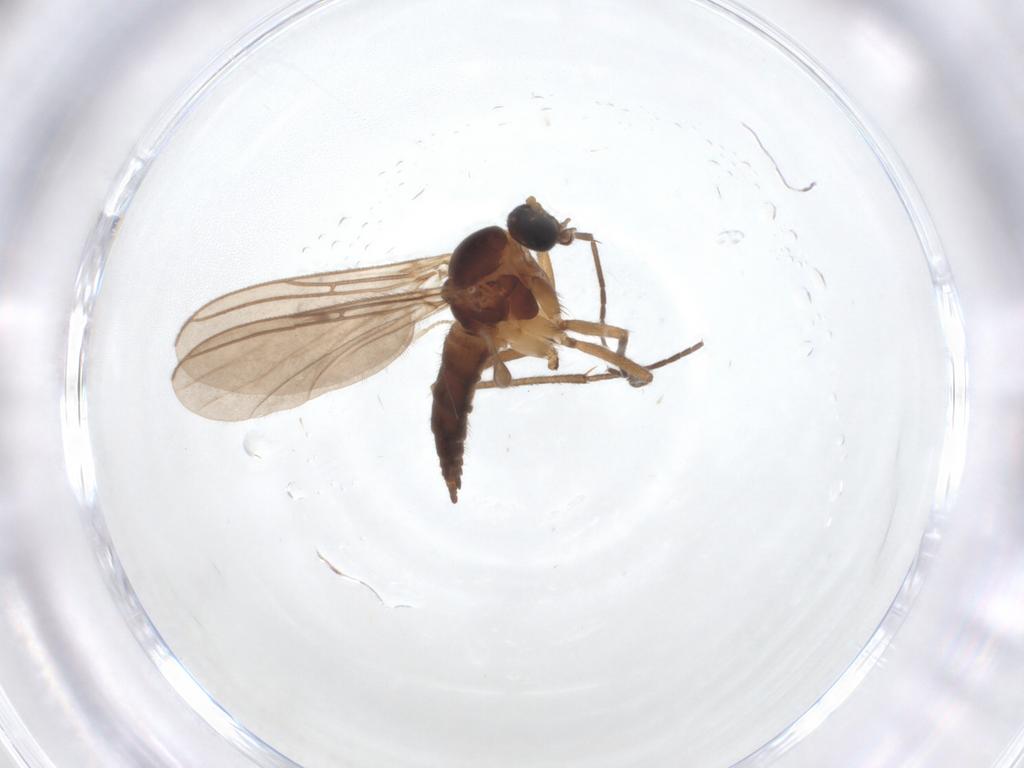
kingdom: Animalia
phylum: Arthropoda
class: Insecta
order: Diptera
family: Sciaridae
